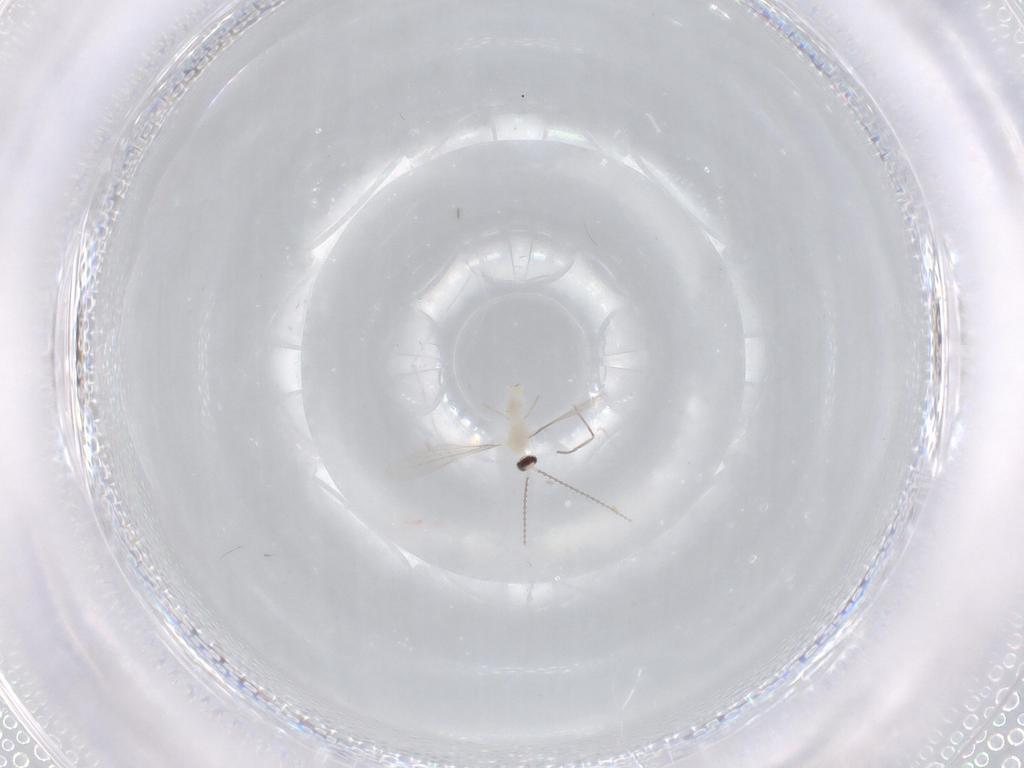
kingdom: Animalia
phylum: Arthropoda
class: Insecta
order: Diptera
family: Cecidomyiidae
